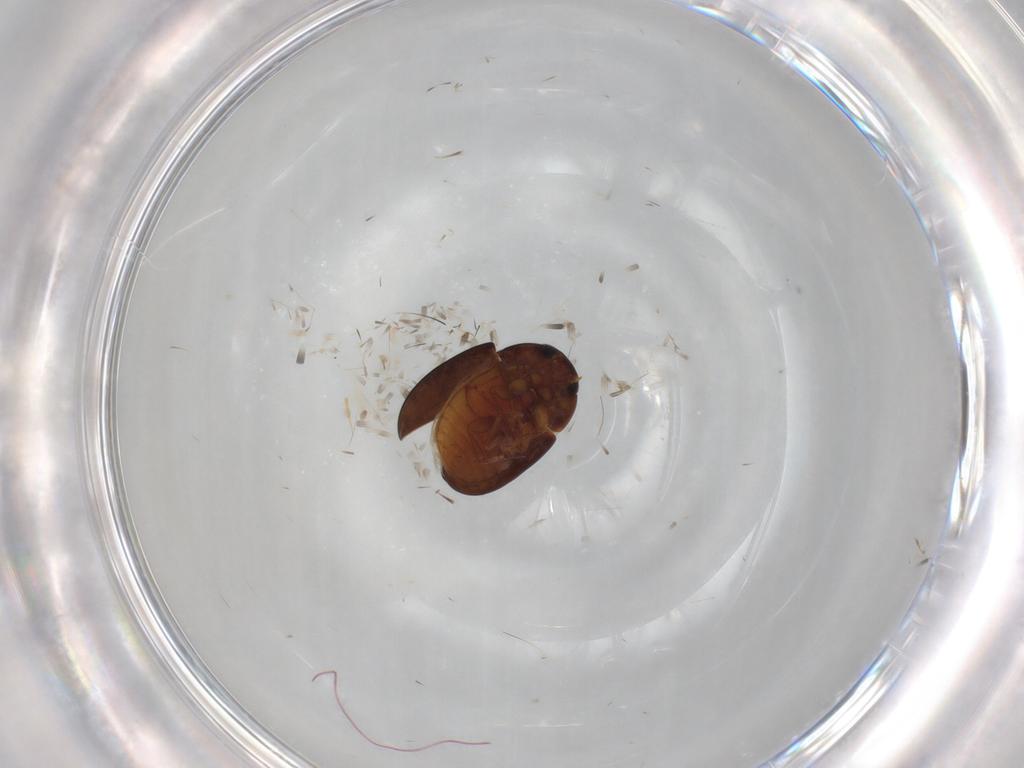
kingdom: Animalia
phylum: Arthropoda
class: Insecta
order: Coleoptera
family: Phalacridae
